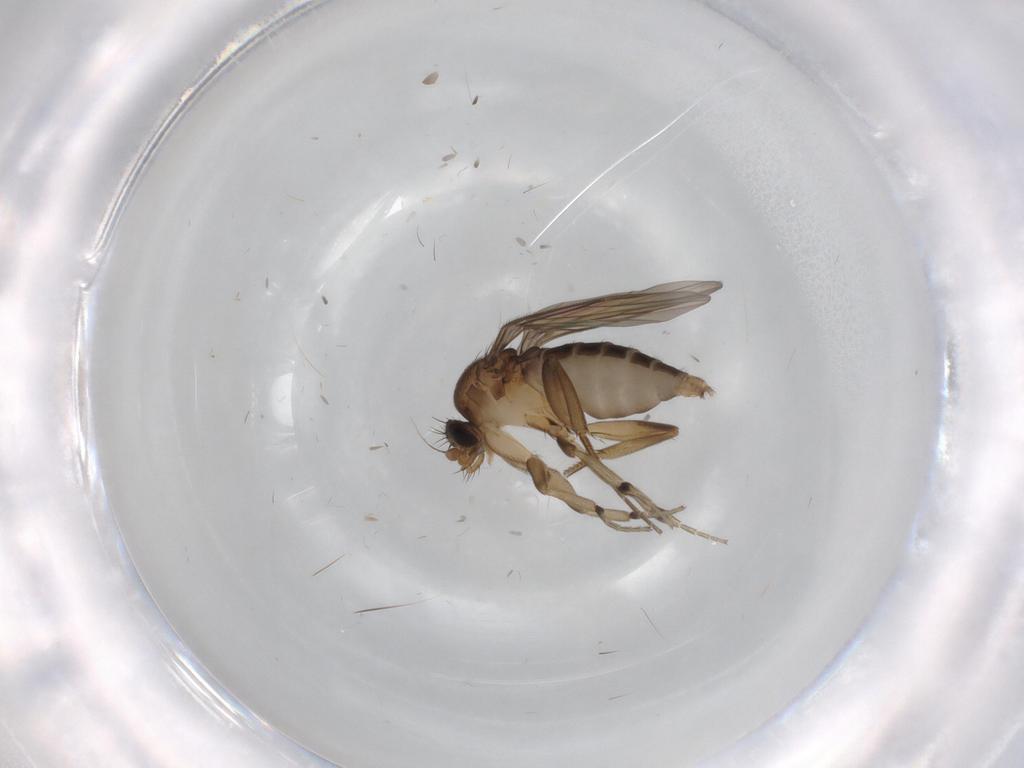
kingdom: Animalia
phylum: Arthropoda
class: Insecta
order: Diptera
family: Phoridae
